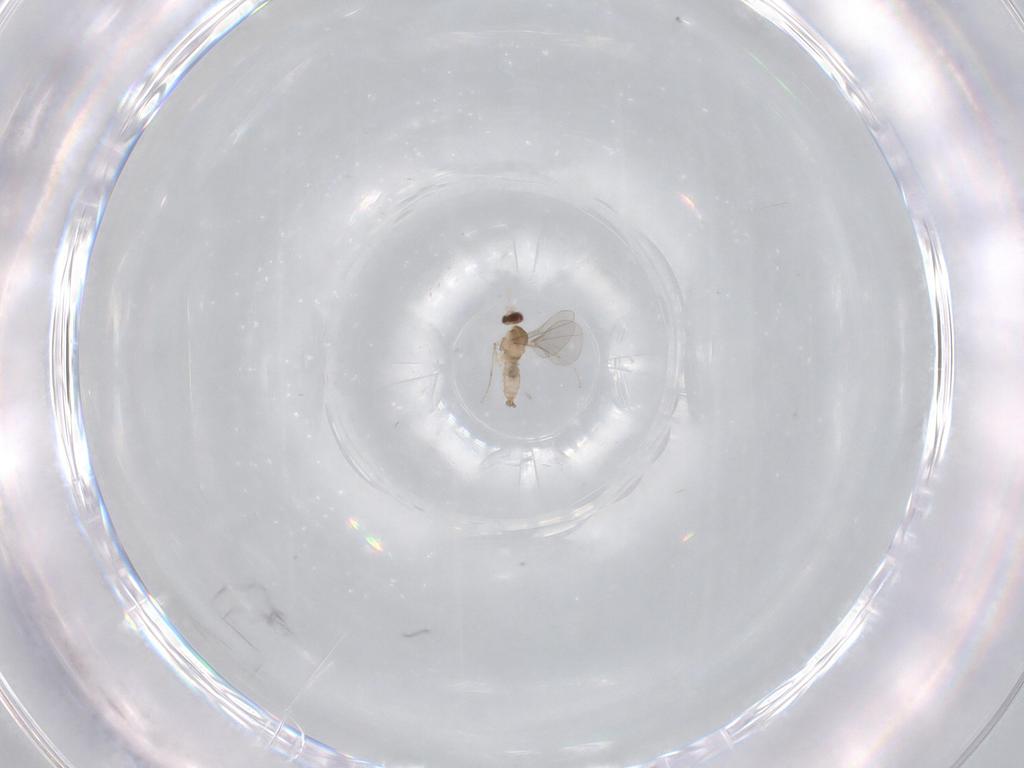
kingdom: Animalia
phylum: Arthropoda
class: Insecta
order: Diptera
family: Cecidomyiidae
